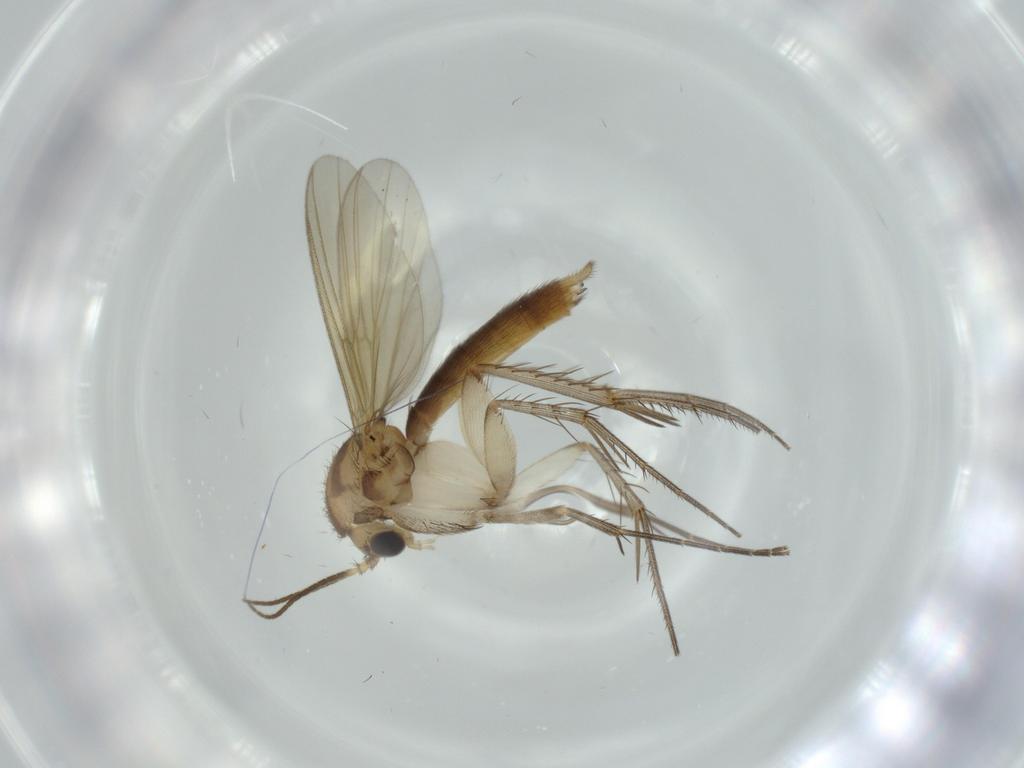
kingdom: Animalia
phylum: Arthropoda
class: Insecta
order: Diptera
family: Mycetophilidae
